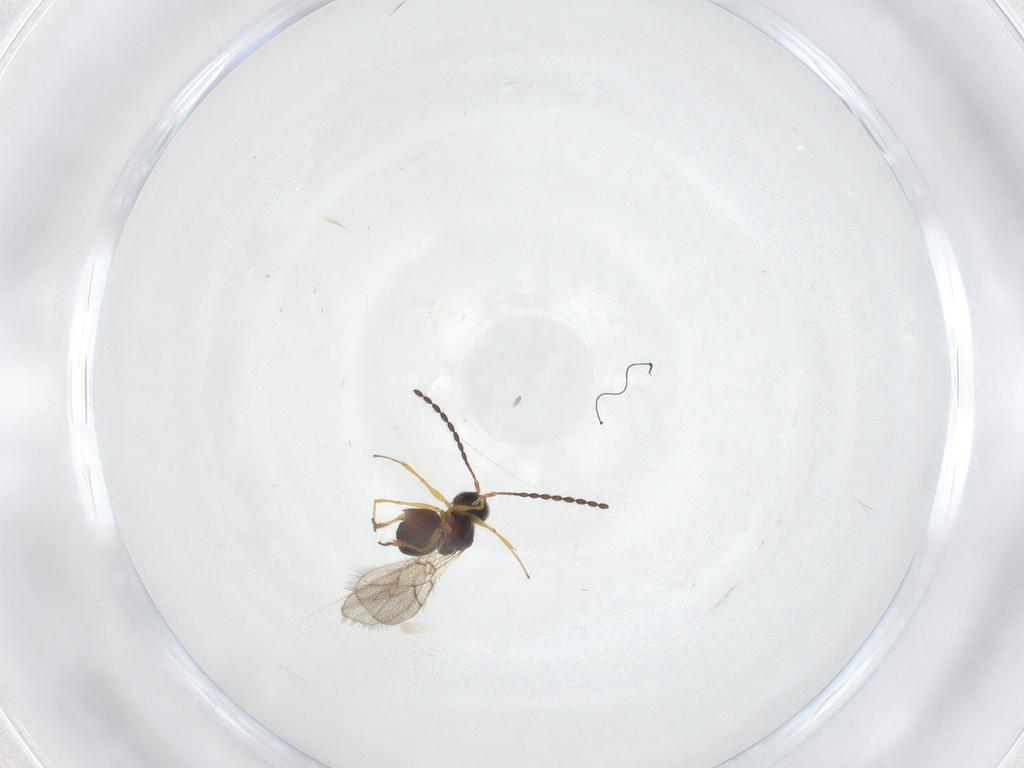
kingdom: Animalia
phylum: Arthropoda
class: Insecta
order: Hymenoptera
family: Figitidae
